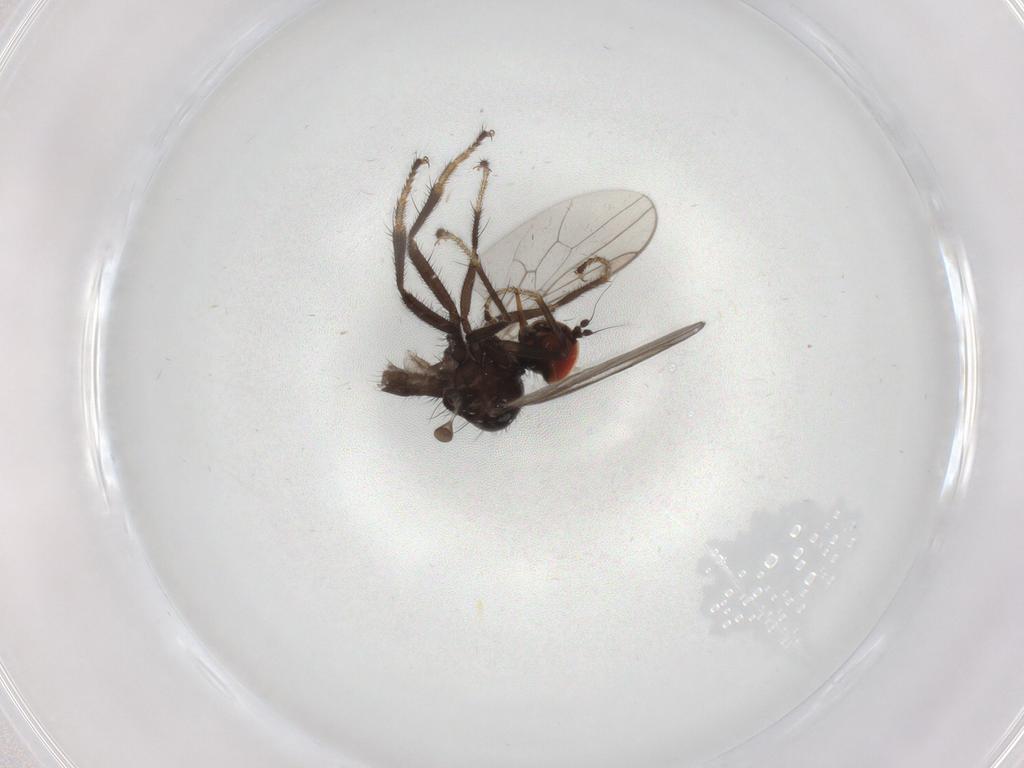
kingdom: Animalia
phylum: Arthropoda
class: Insecta
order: Diptera
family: Hybotidae
